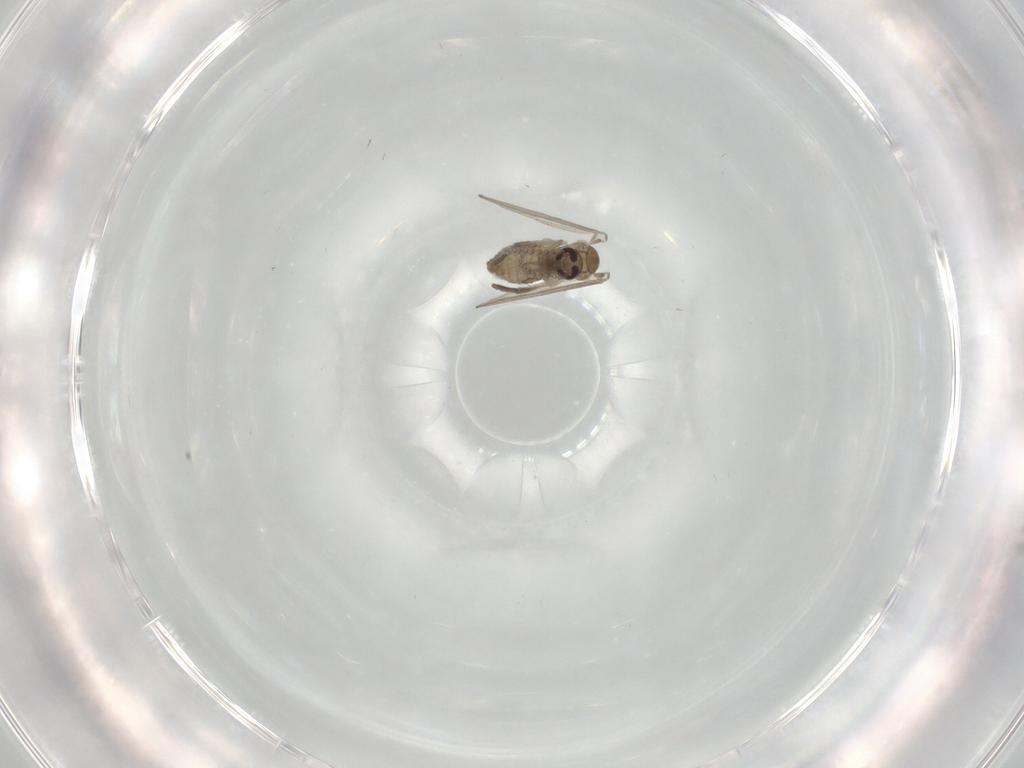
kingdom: Animalia
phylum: Arthropoda
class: Insecta
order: Diptera
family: Psychodidae
